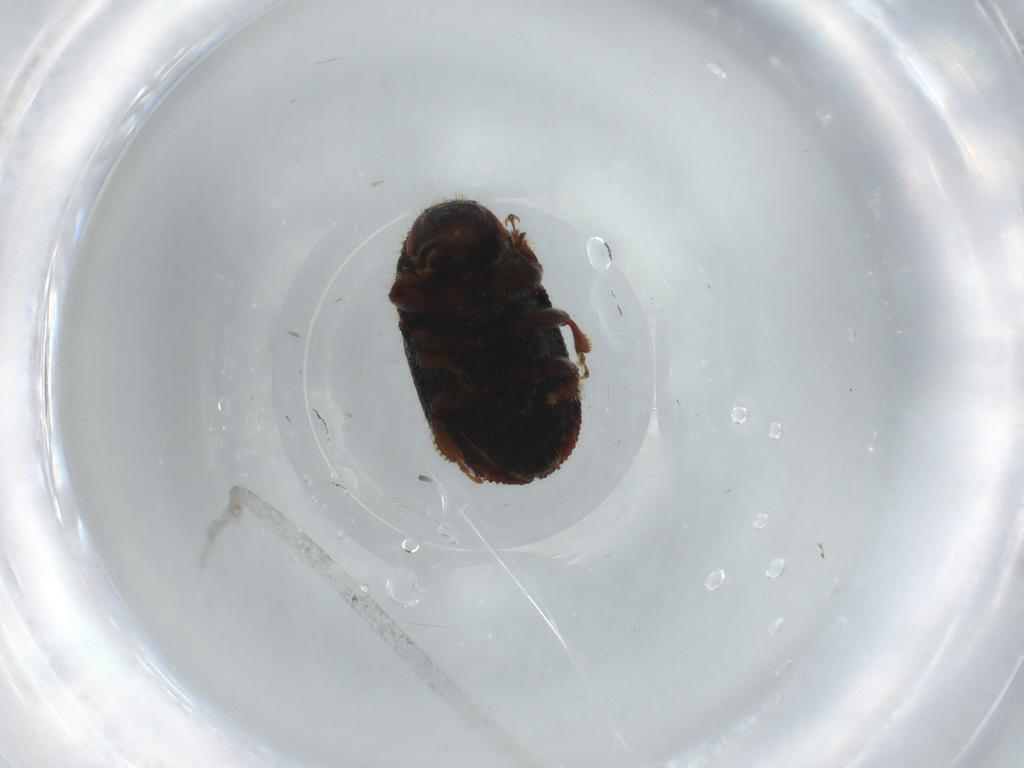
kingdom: Animalia
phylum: Arthropoda
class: Insecta
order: Coleoptera
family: Curculionidae
